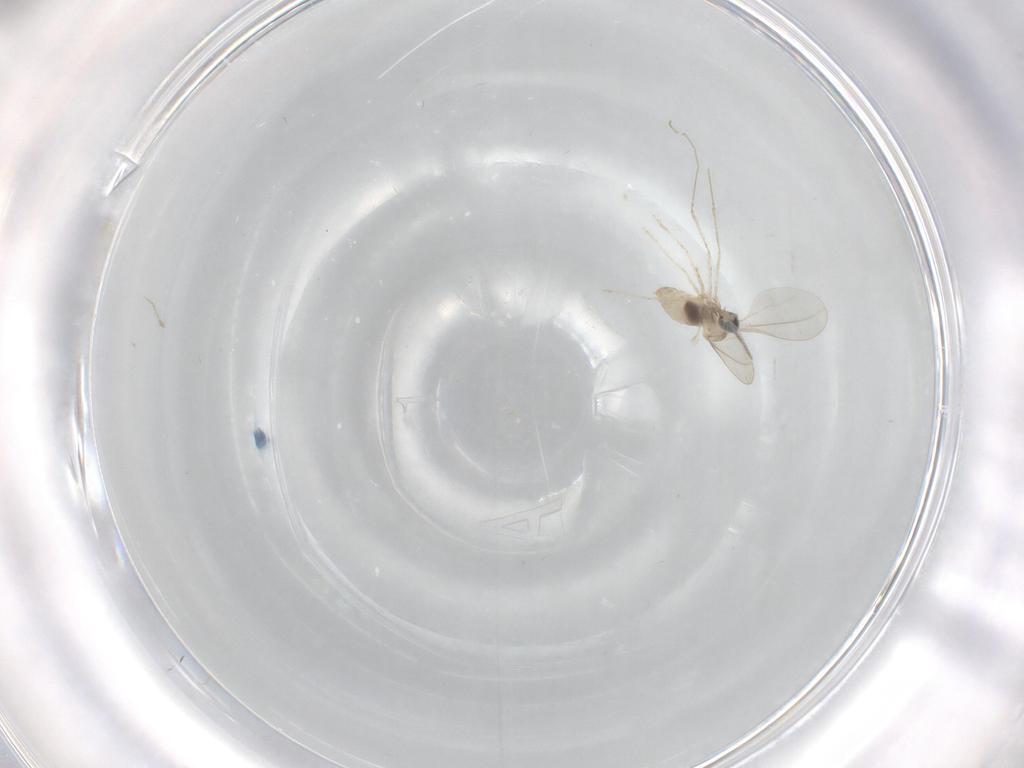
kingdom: Animalia
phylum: Arthropoda
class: Insecta
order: Diptera
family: Cecidomyiidae
